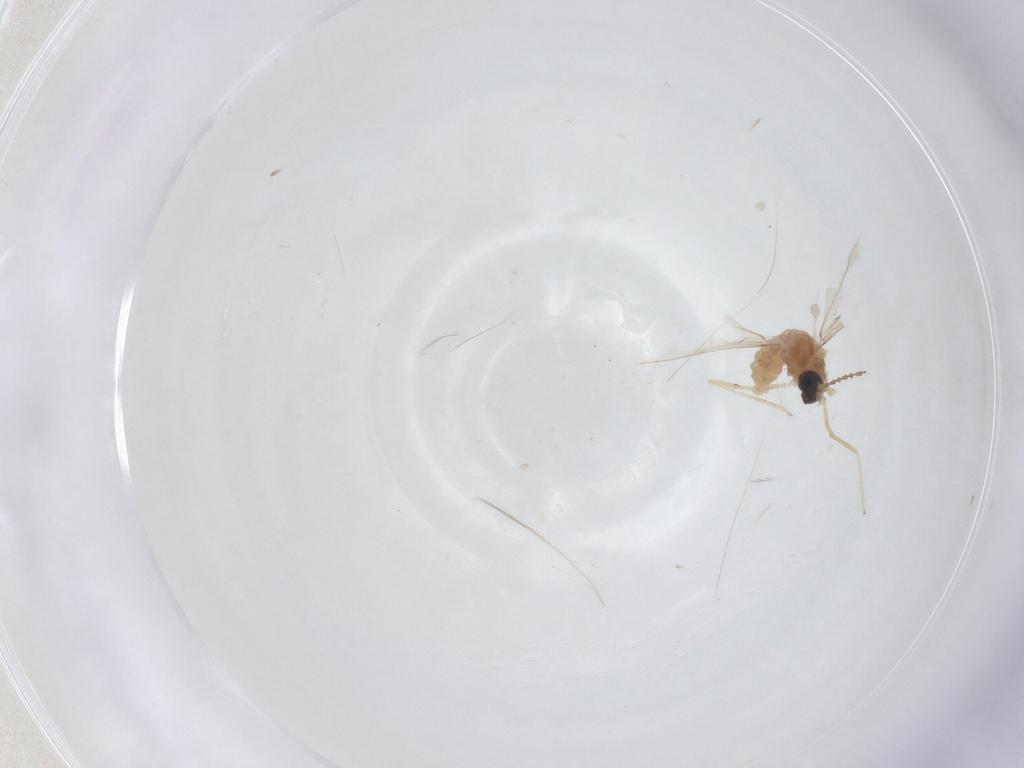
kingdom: Animalia
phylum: Arthropoda
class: Insecta
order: Diptera
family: Cecidomyiidae
